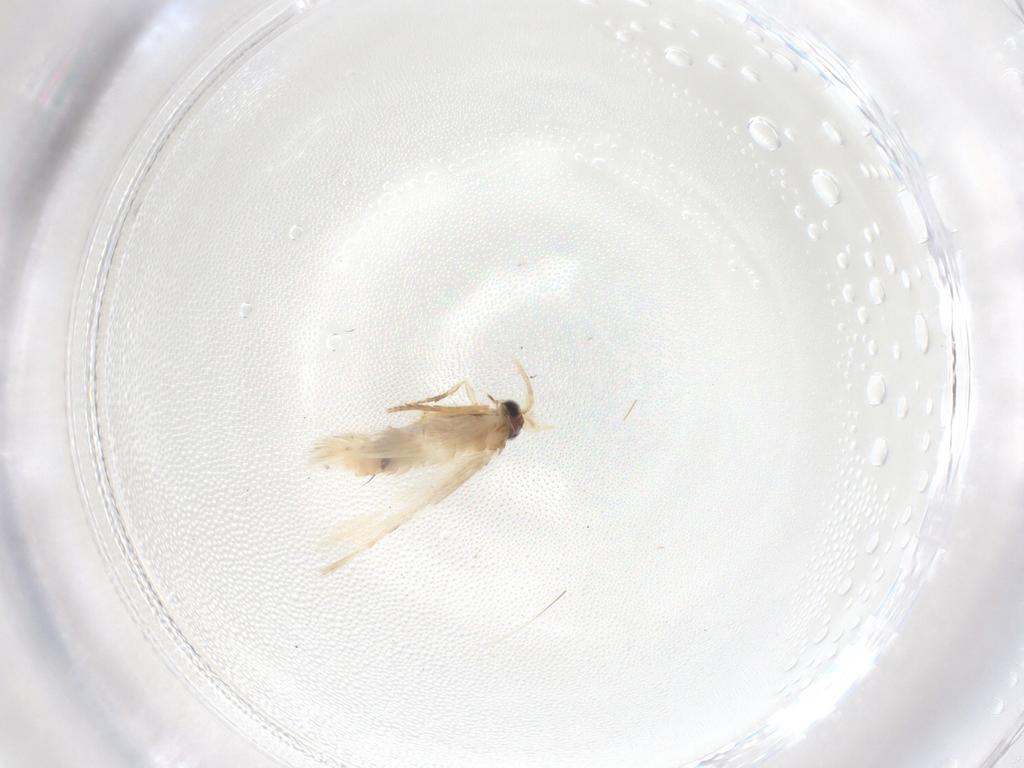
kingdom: Animalia
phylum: Arthropoda
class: Insecta
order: Lepidoptera
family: Nepticulidae
